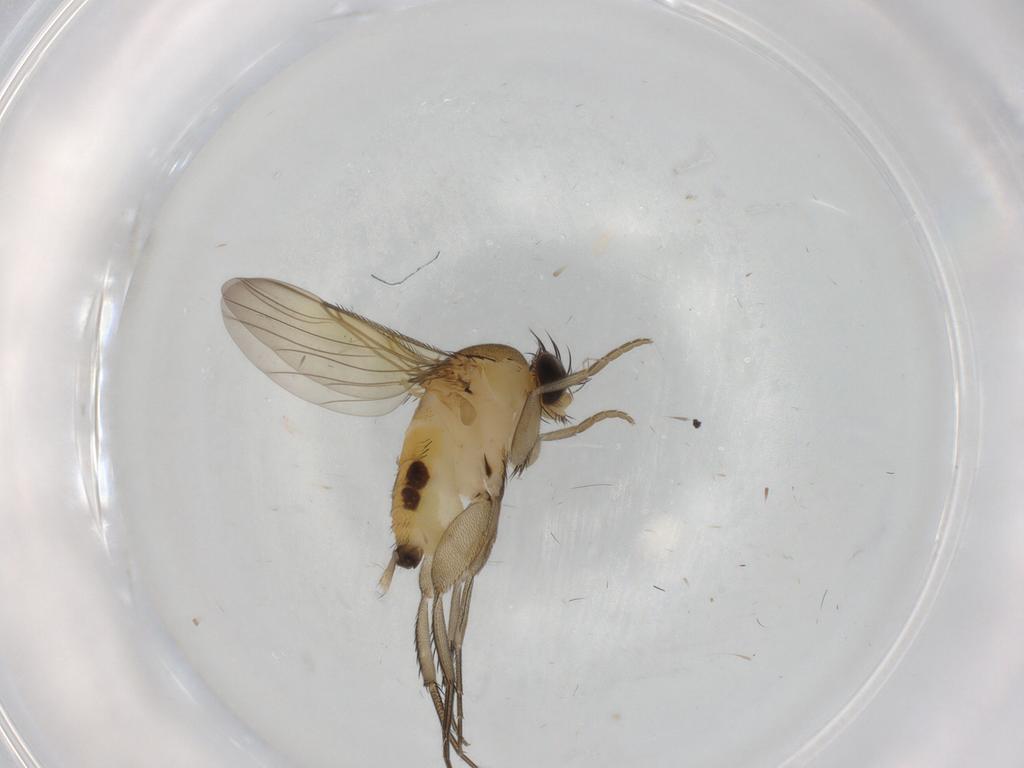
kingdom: Animalia
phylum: Arthropoda
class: Insecta
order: Diptera
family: Phoridae
